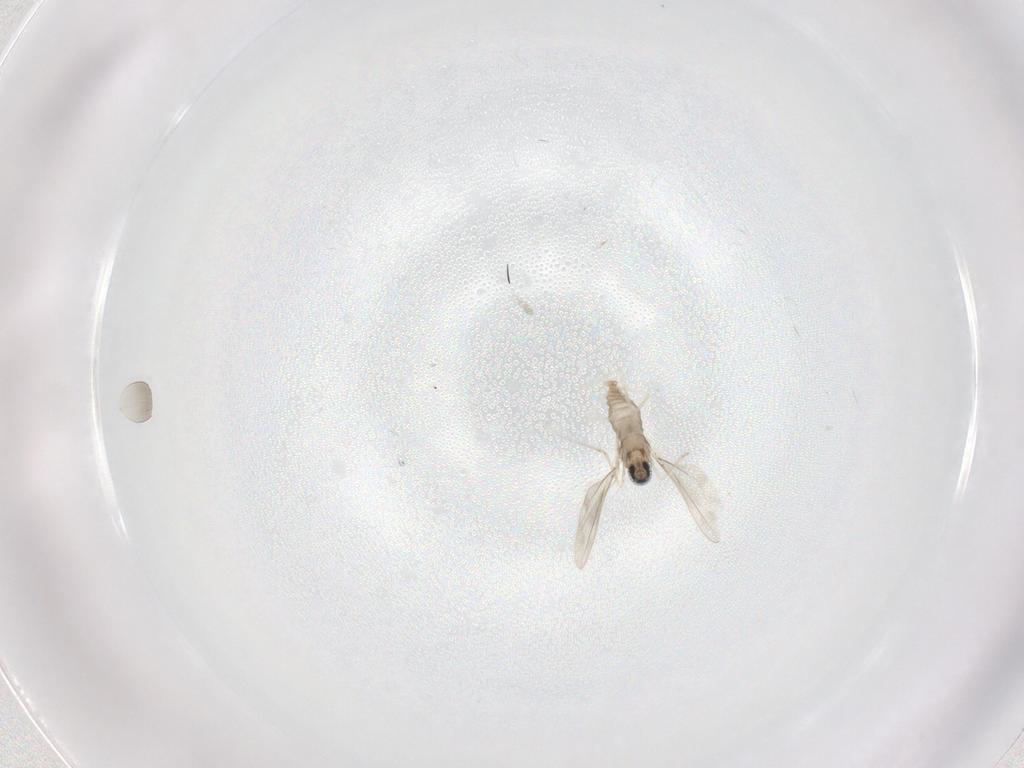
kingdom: Animalia
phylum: Arthropoda
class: Insecta
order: Diptera
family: Cecidomyiidae
